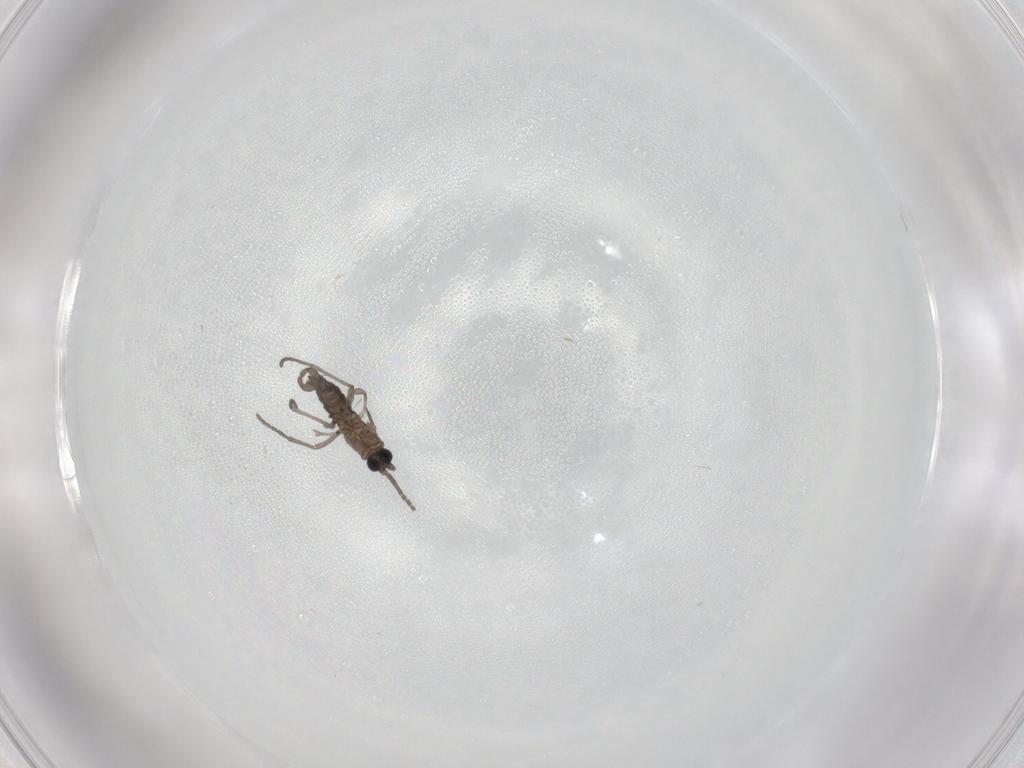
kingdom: Animalia
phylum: Arthropoda
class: Insecta
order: Diptera
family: Sciaridae
